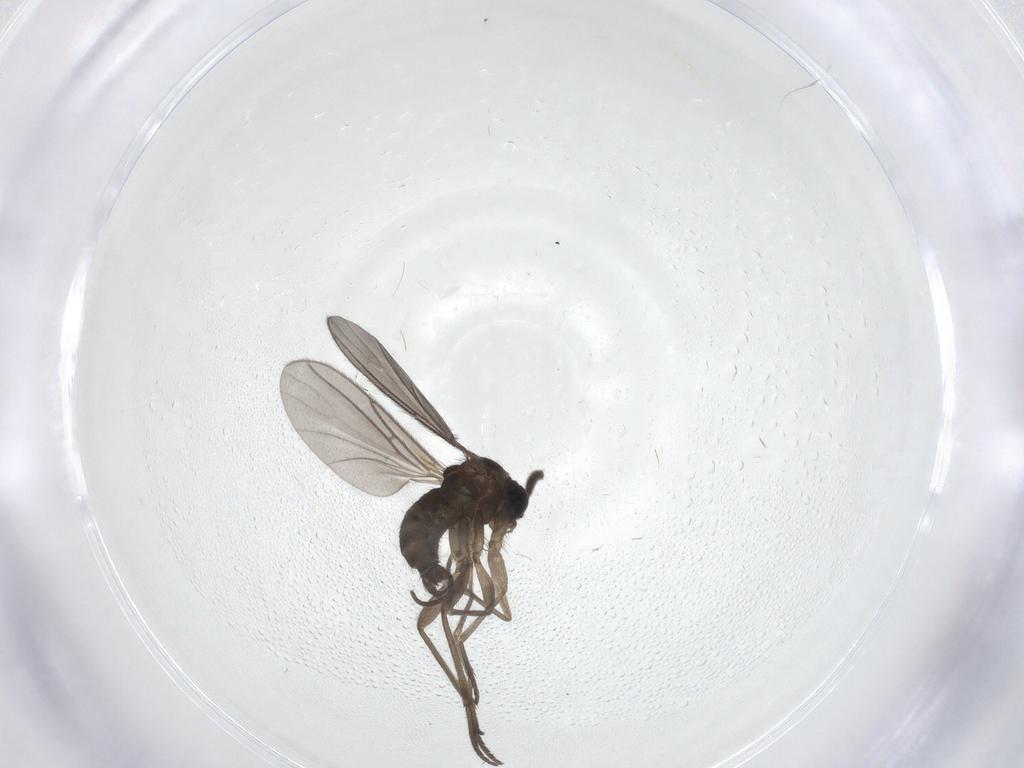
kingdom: Animalia
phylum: Arthropoda
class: Insecta
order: Diptera
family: Sciaridae
